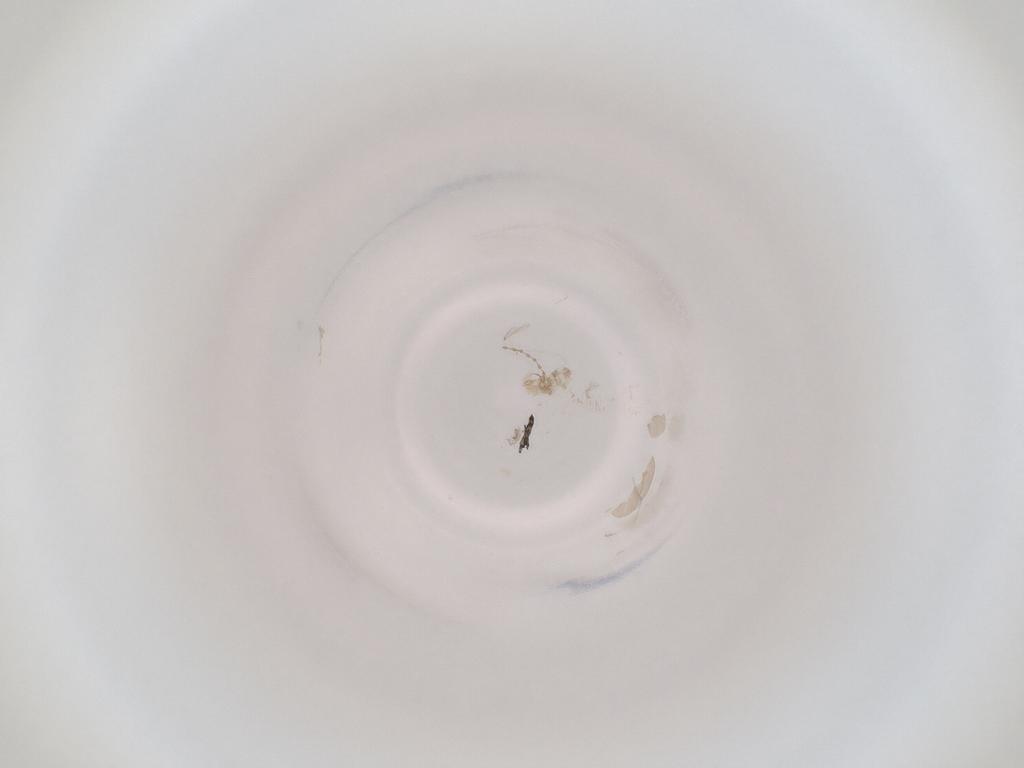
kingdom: Animalia
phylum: Arthropoda
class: Insecta
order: Diptera
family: Cecidomyiidae
